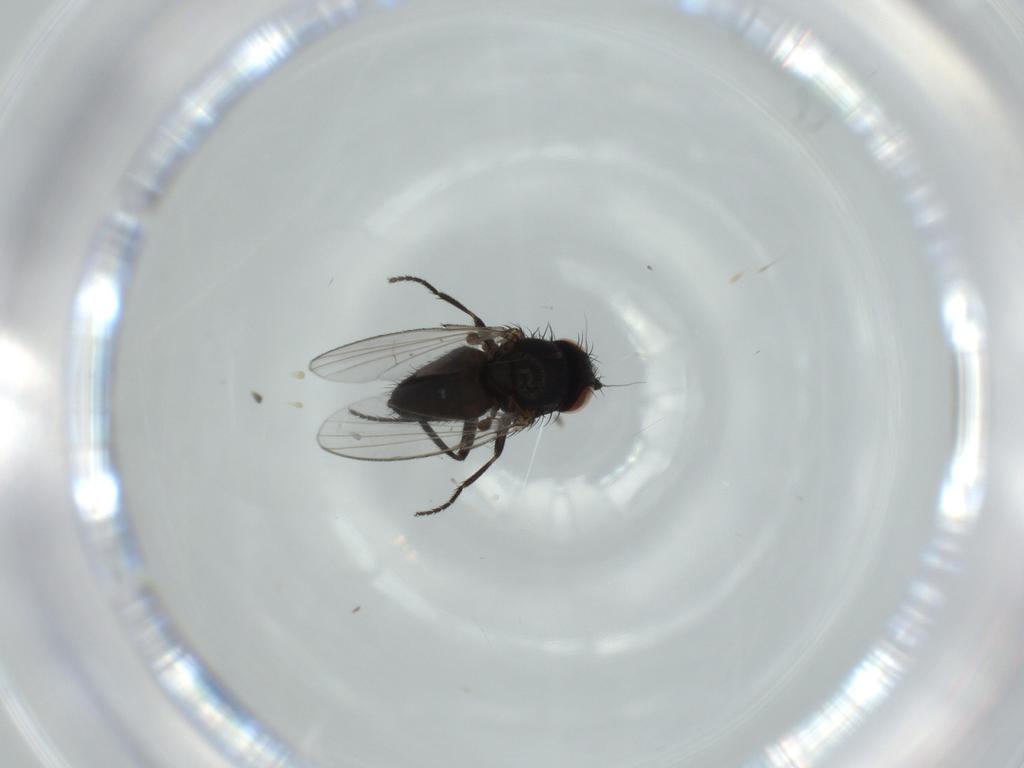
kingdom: Animalia
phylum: Arthropoda
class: Insecta
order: Diptera
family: Milichiidae
